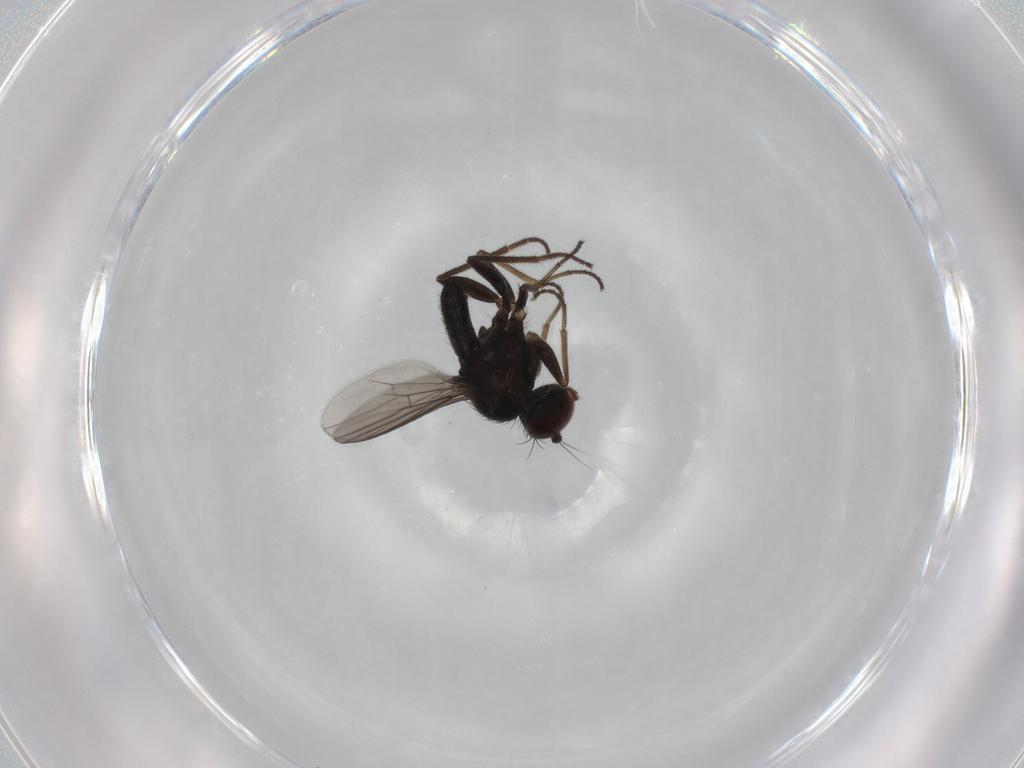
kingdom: Animalia
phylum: Arthropoda
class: Insecta
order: Diptera
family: Dolichopodidae
